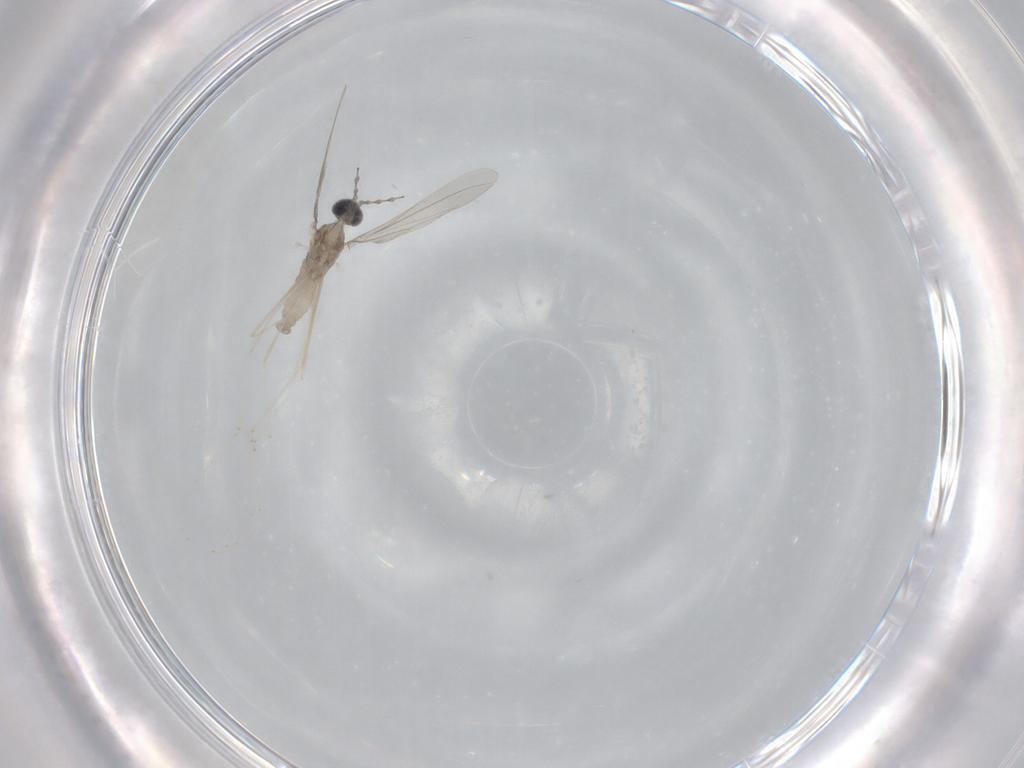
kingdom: Animalia
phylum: Arthropoda
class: Insecta
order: Diptera
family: Cecidomyiidae
